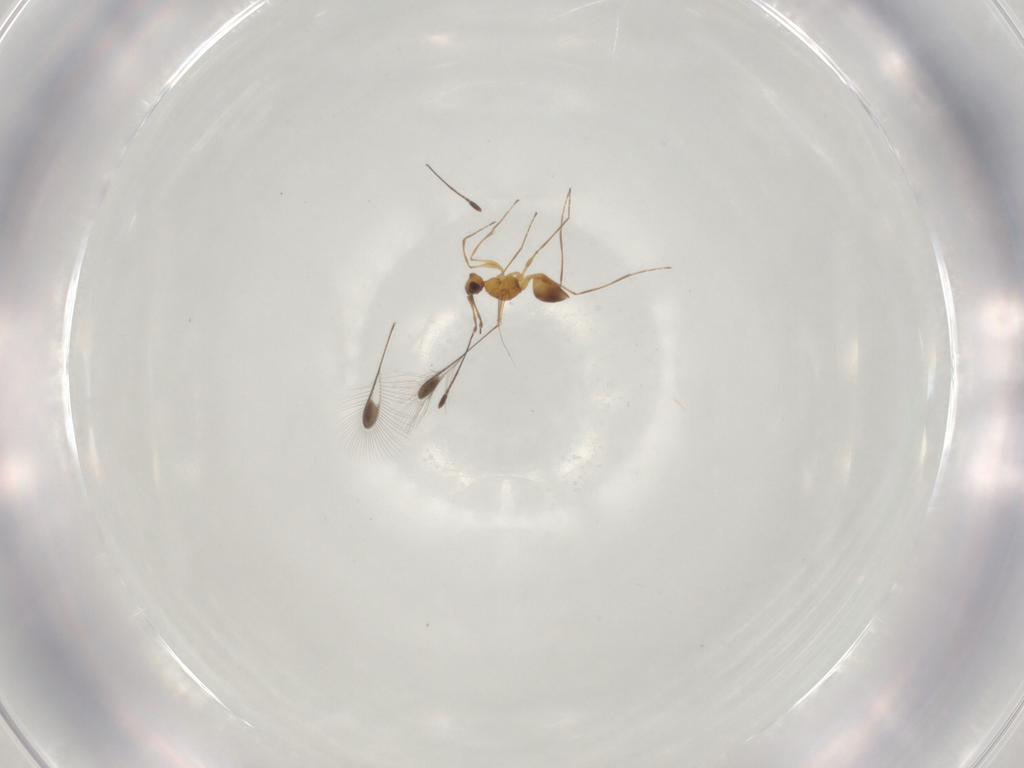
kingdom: Animalia
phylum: Arthropoda
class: Insecta
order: Hymenoptera
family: Mymaridae
